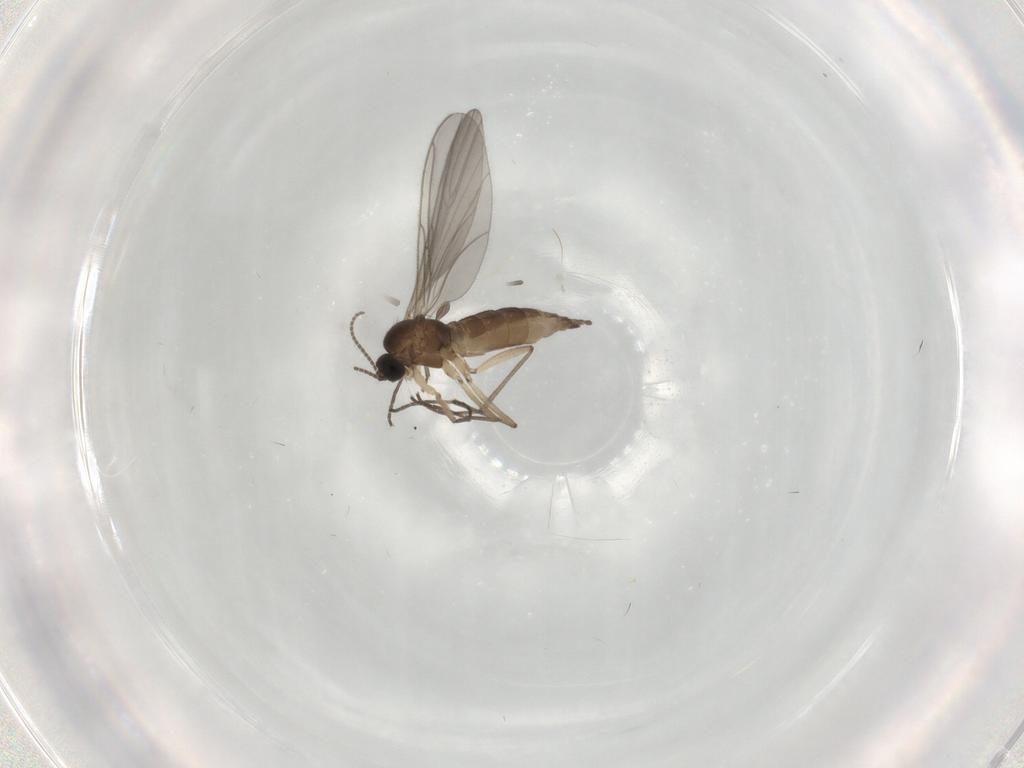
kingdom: Animalia
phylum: Arthropoda
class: Insecta
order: Diptera
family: Sciaridae
